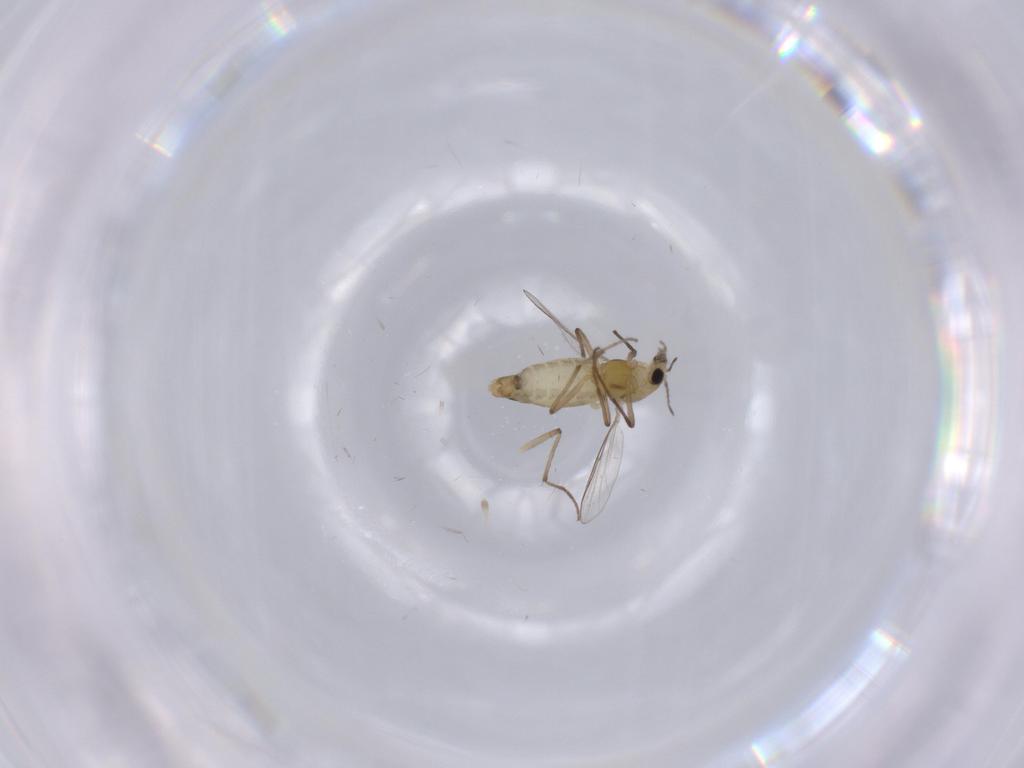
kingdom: Animalia
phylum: Arthropoda
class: Insecta
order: Diptera
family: Chironomidae
